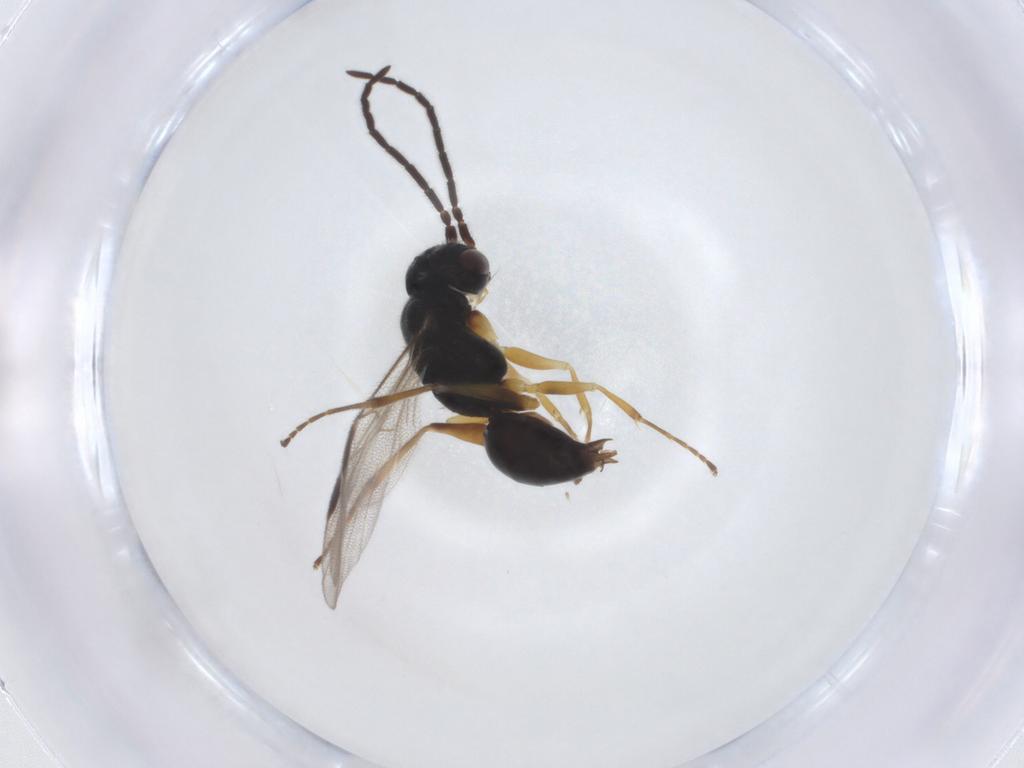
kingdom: Animalia
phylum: Arthropoda
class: Insecta
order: Hymenoptera
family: Dryinidae
